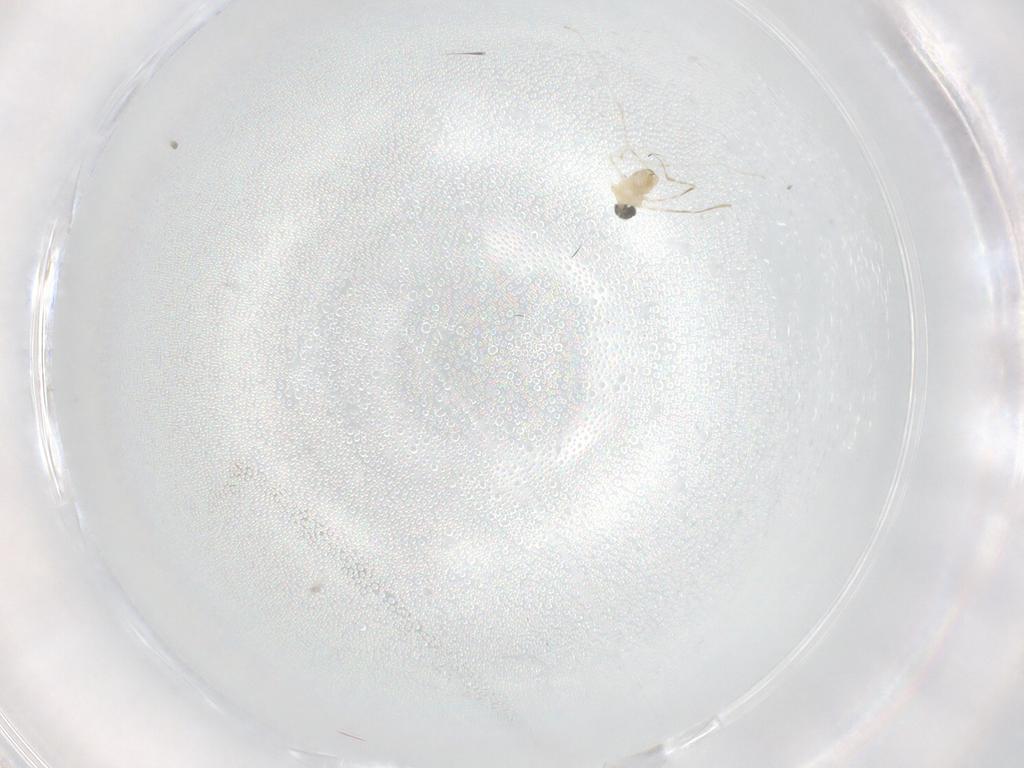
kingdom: Animalia
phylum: Arthropoda
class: Insecta
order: Diptera
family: Cecidomyiidae
